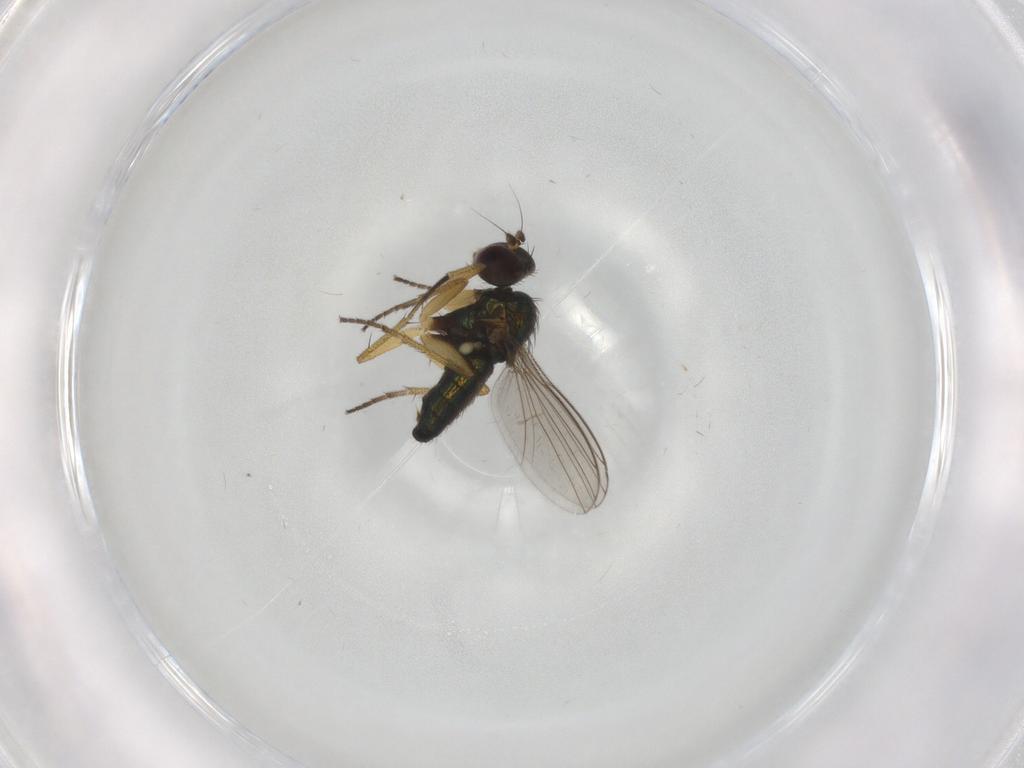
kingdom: Animalia
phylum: Arthropoda
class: Insecta
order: Diptera
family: Dolichopodidae
